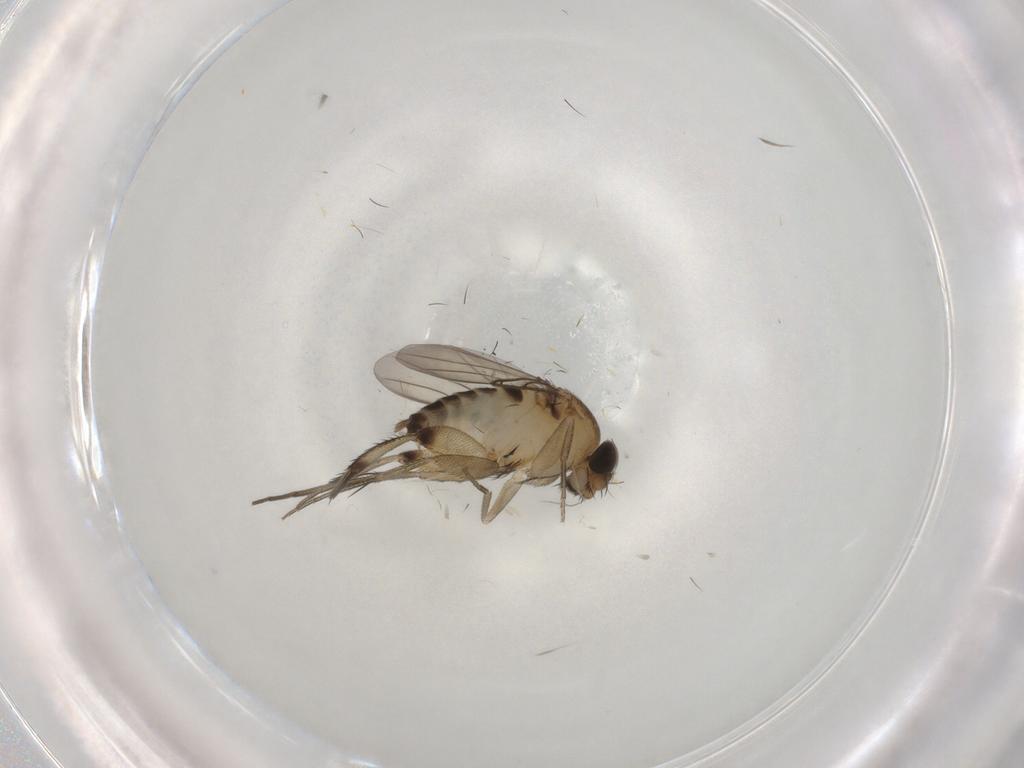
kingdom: Animalia
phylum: Arthropoda
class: Insecta
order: Diptera
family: Phoridae
